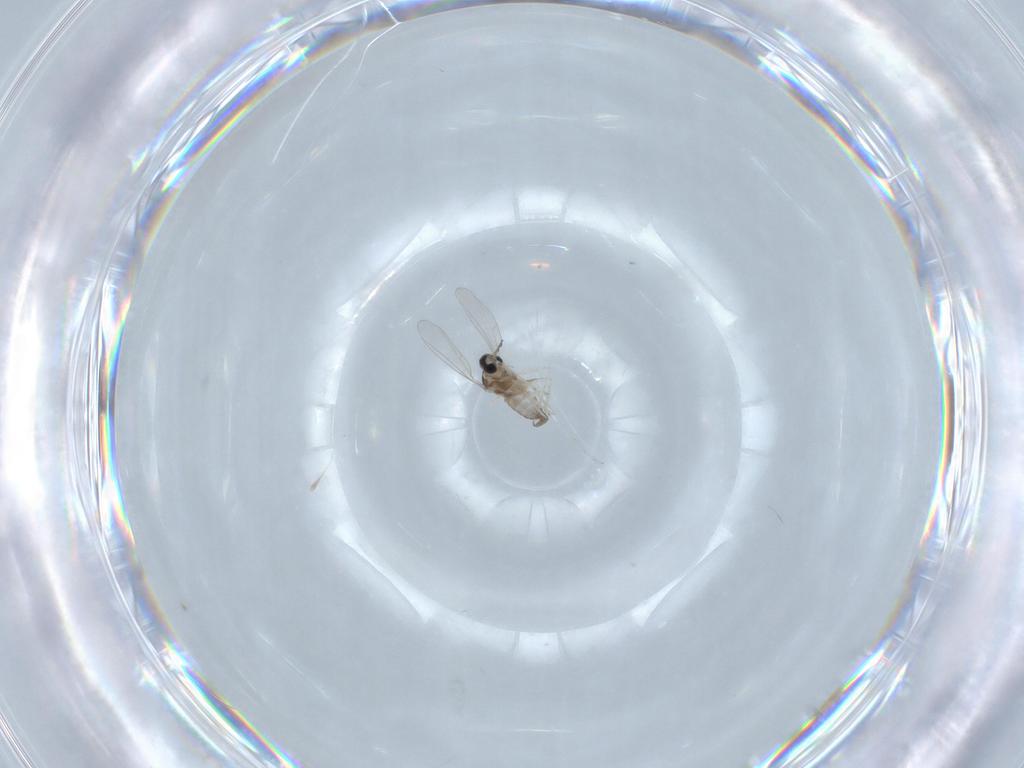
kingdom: Animalia
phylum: Arthropoda
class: Insecta
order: Diptera
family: Cecidomyiidae
